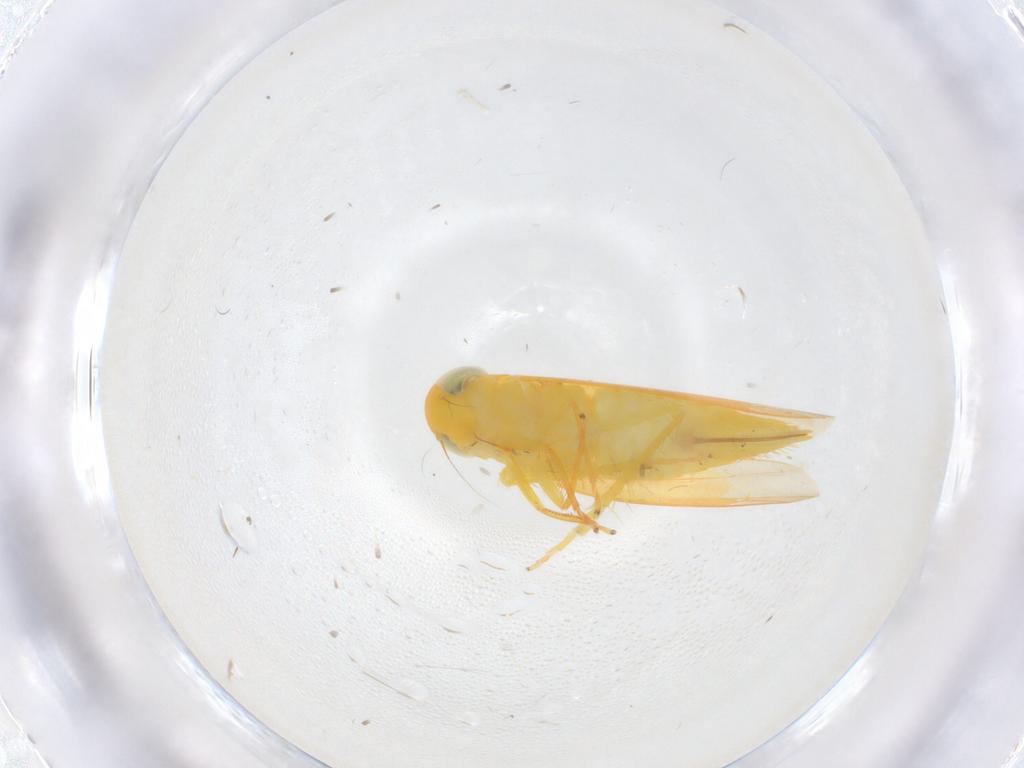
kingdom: Animalia
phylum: Arthropoda
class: Insecta
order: Hemiptera
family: Cicadellidae
